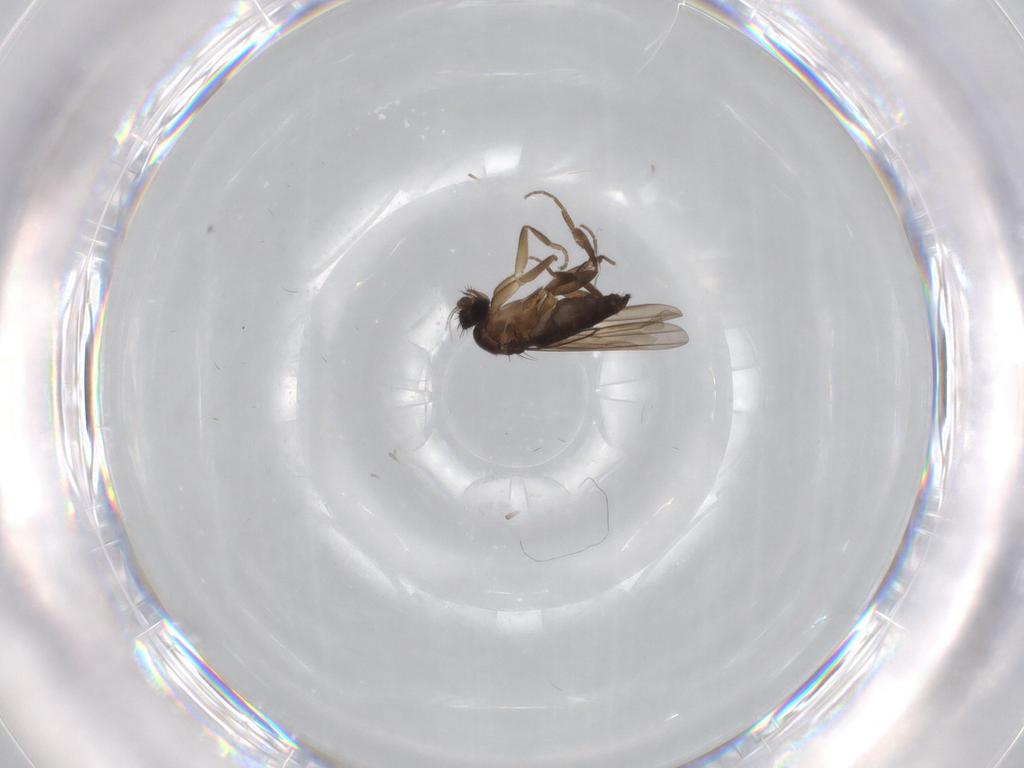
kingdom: Animalia
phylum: Arthropoda
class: Insecta
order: Diptera
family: Phoridae
